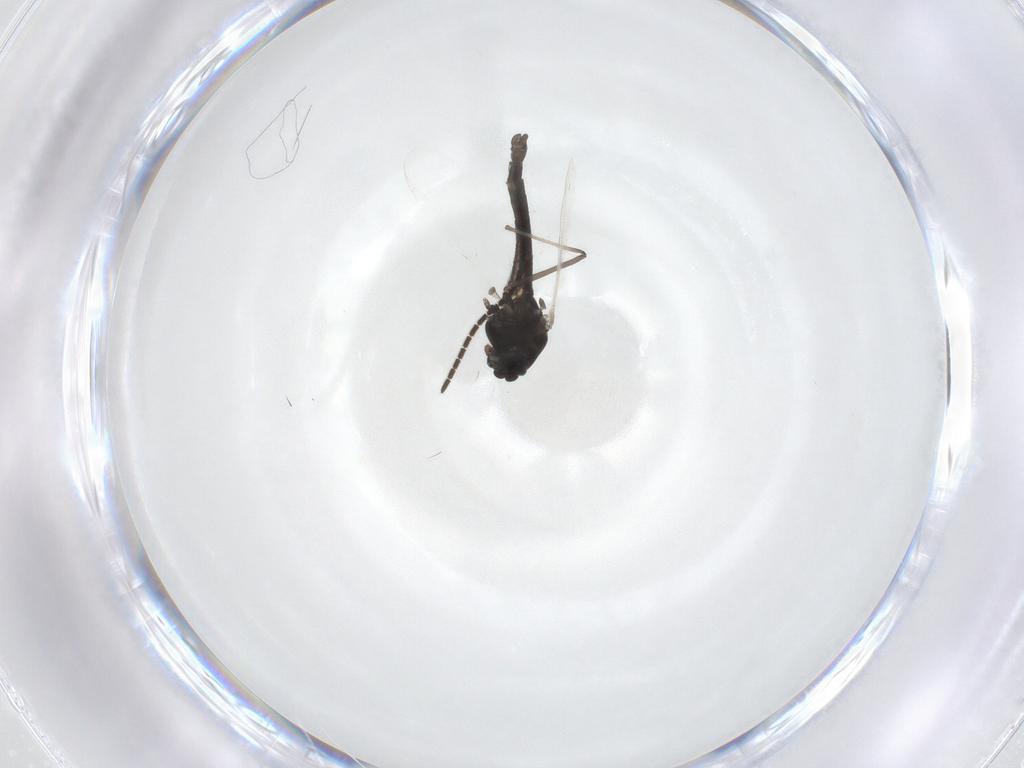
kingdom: Animalia
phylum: Arthropoda
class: Insecta
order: Diptera
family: Chironomidae
